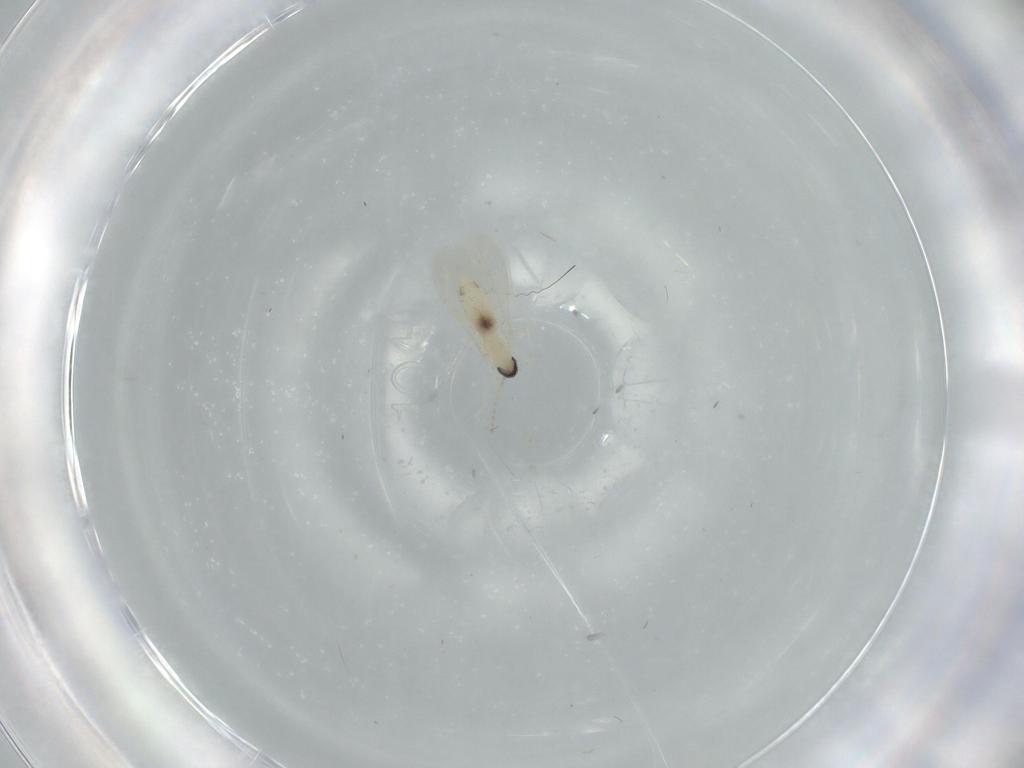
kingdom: Animalia
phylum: Arthropoda
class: Insecta
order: Diptera
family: Cecidomyiidae
